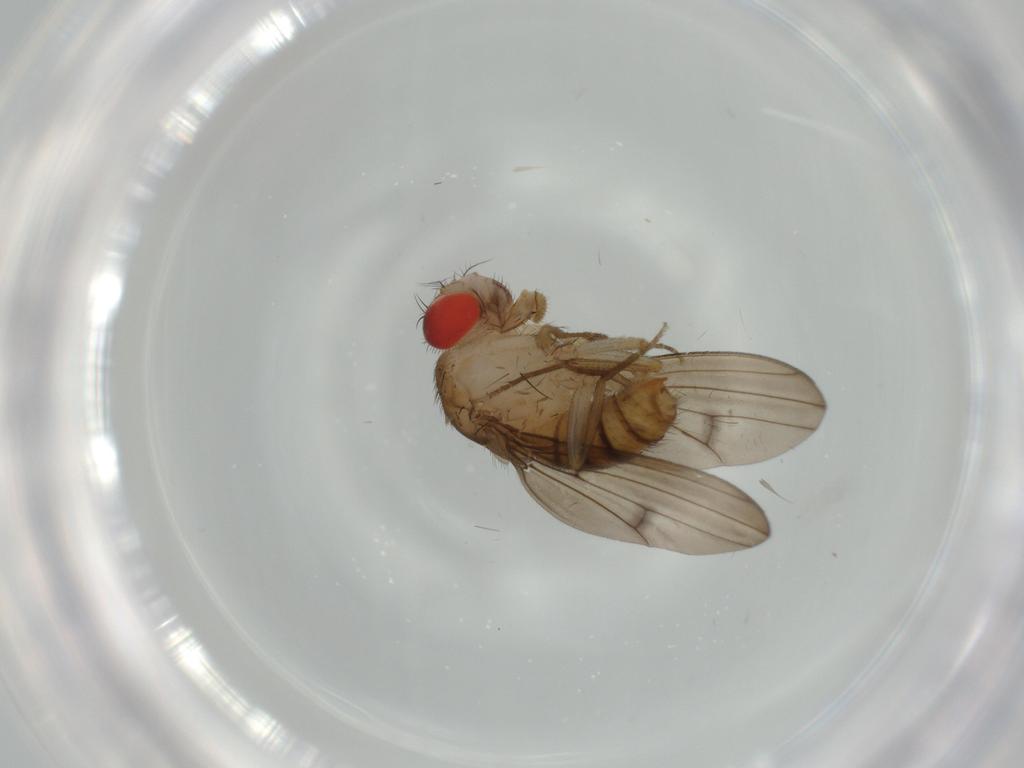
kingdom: Animalia
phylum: Arthropoda
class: Insecta
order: Diptera
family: Drosophilidae
